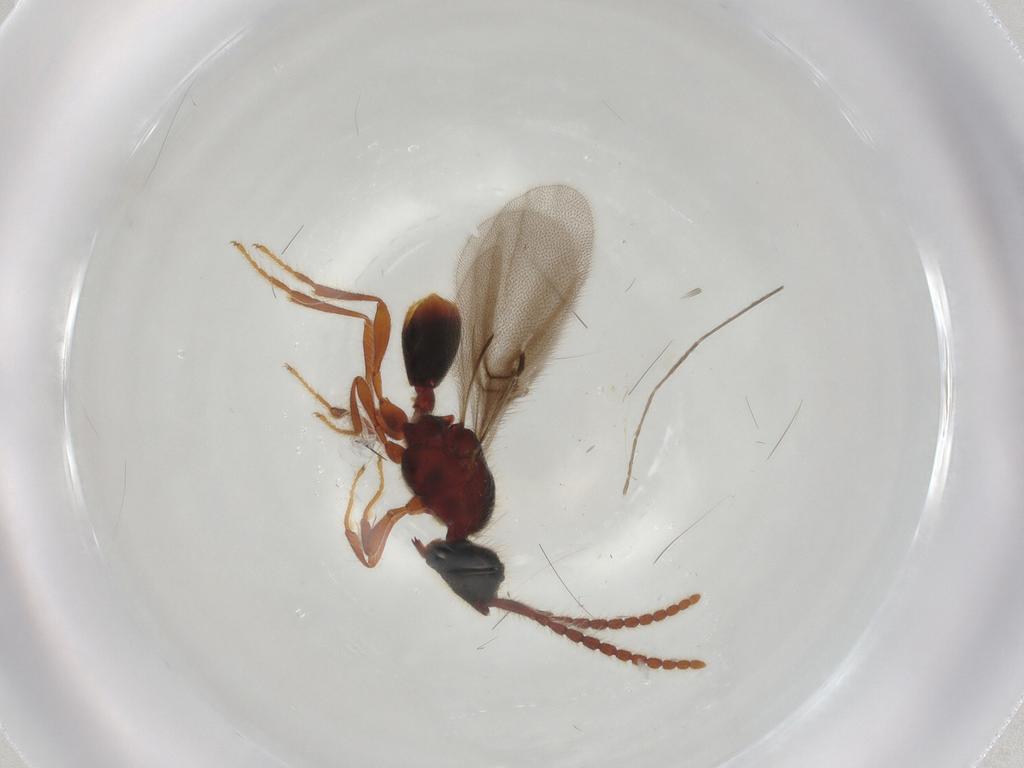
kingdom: Animalia
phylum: Arthropoda
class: Insecta
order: Hymenoptera
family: Diapriidae
